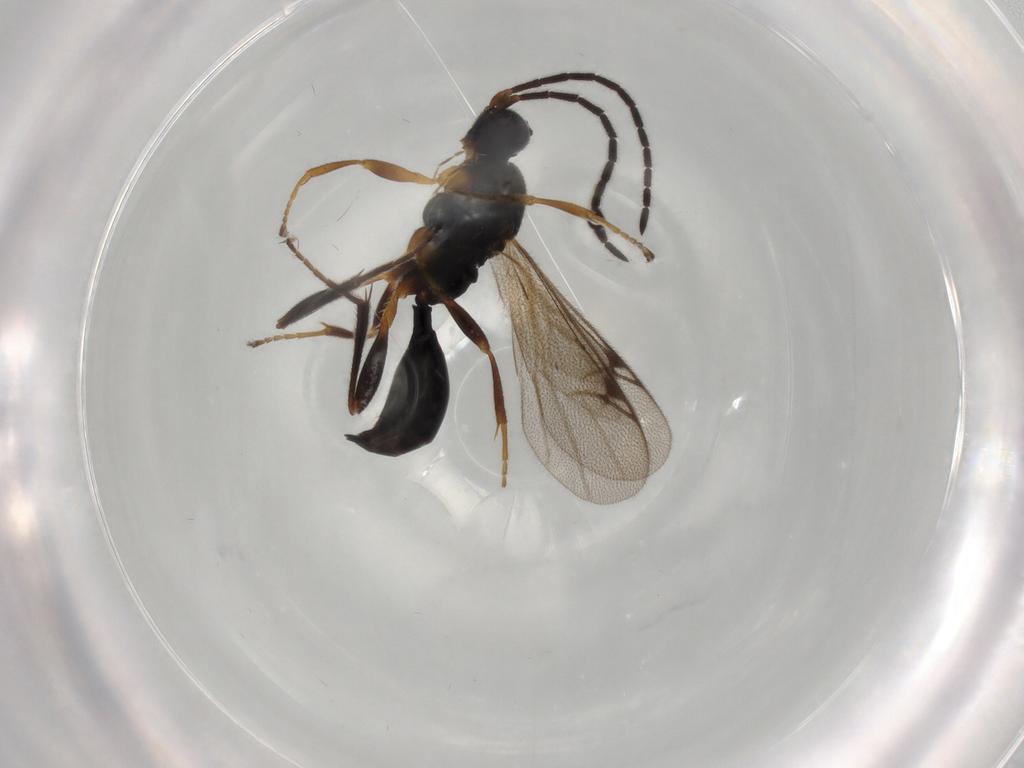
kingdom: Animalia
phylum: Arthropoda
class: Insecta
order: Hymenoptera
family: Proctotrupidae
